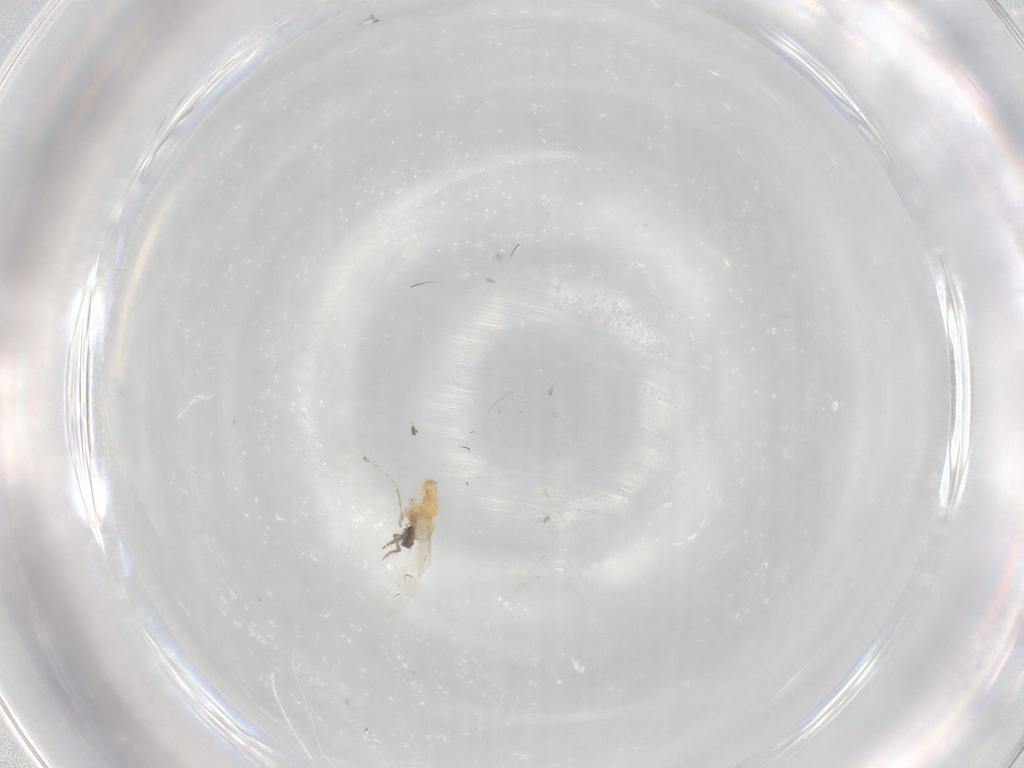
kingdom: Animalia
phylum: Arthropoda
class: Insecta
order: Diptera
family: Cecidomyiidae
